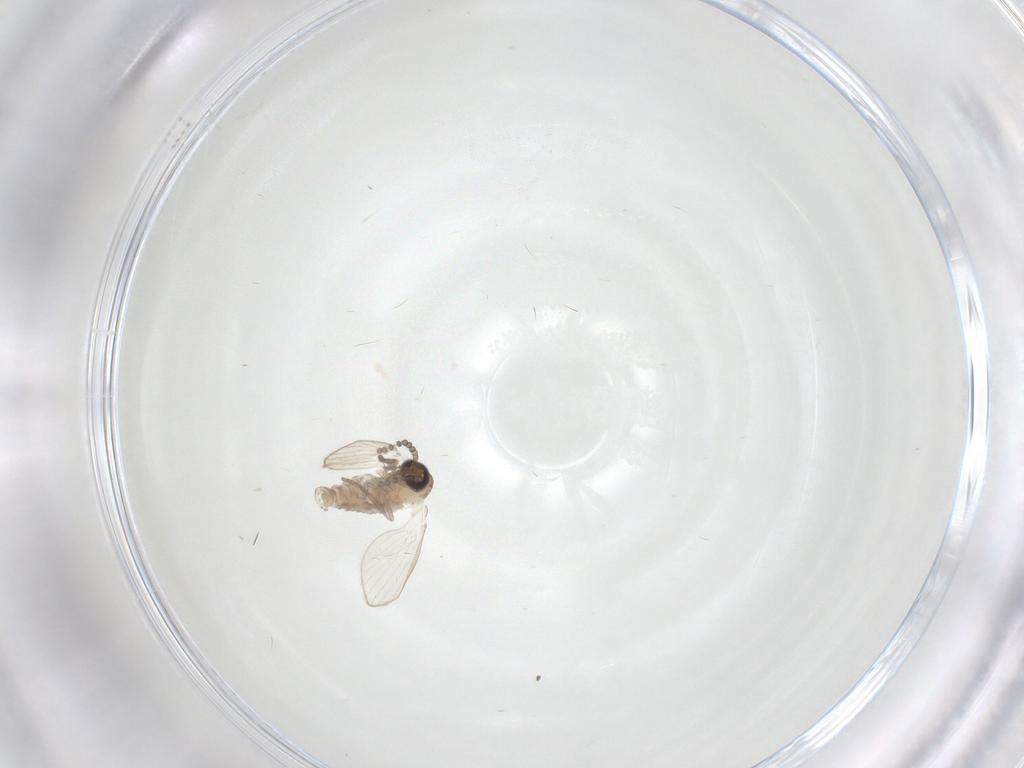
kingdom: Animalia
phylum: Arthropoda
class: Insecta
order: Diptera
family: Psychodidae
